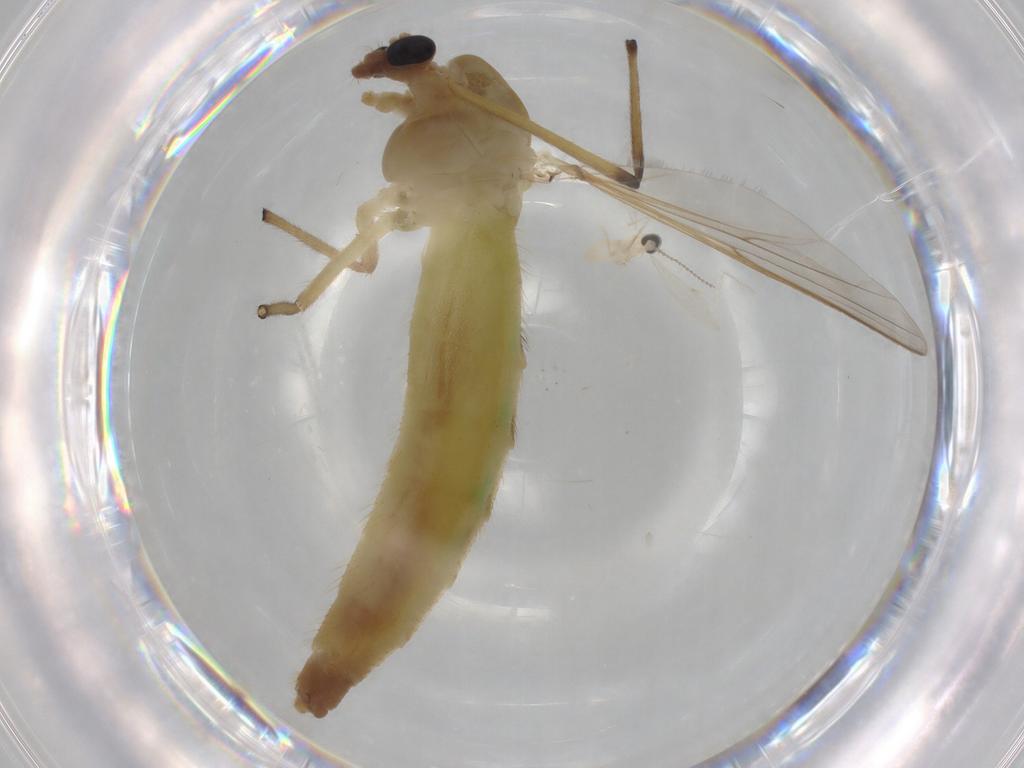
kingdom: Animalia
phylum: Arthropoda
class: Insecta
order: Diptera
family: Chironomidae
